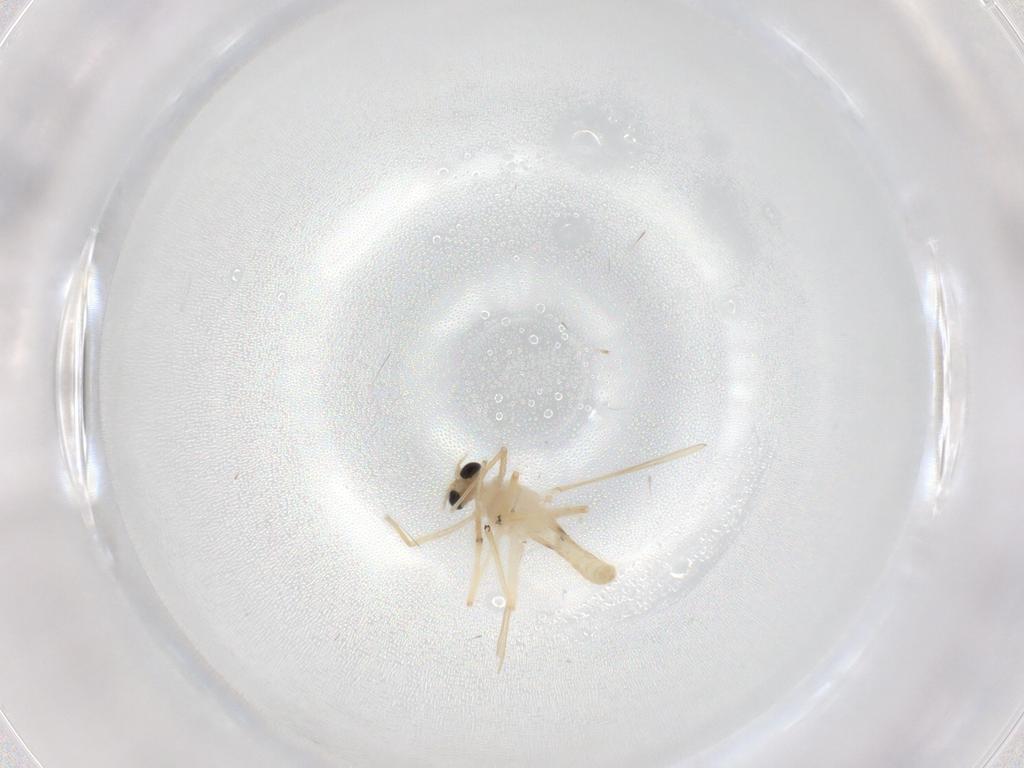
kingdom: Animalia
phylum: Arthropoda
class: Insecta
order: Diptera
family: Chironomidae
